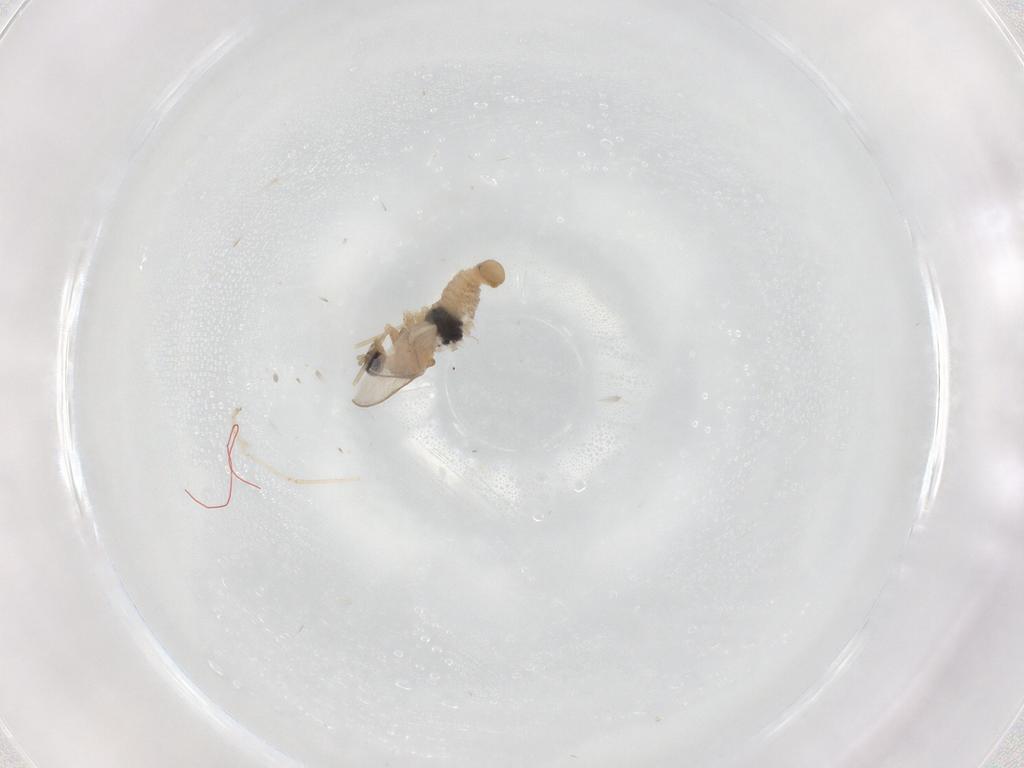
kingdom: Animalia
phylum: Arthropoda
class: Insecta
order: Diptera
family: Cecidomyiidae
